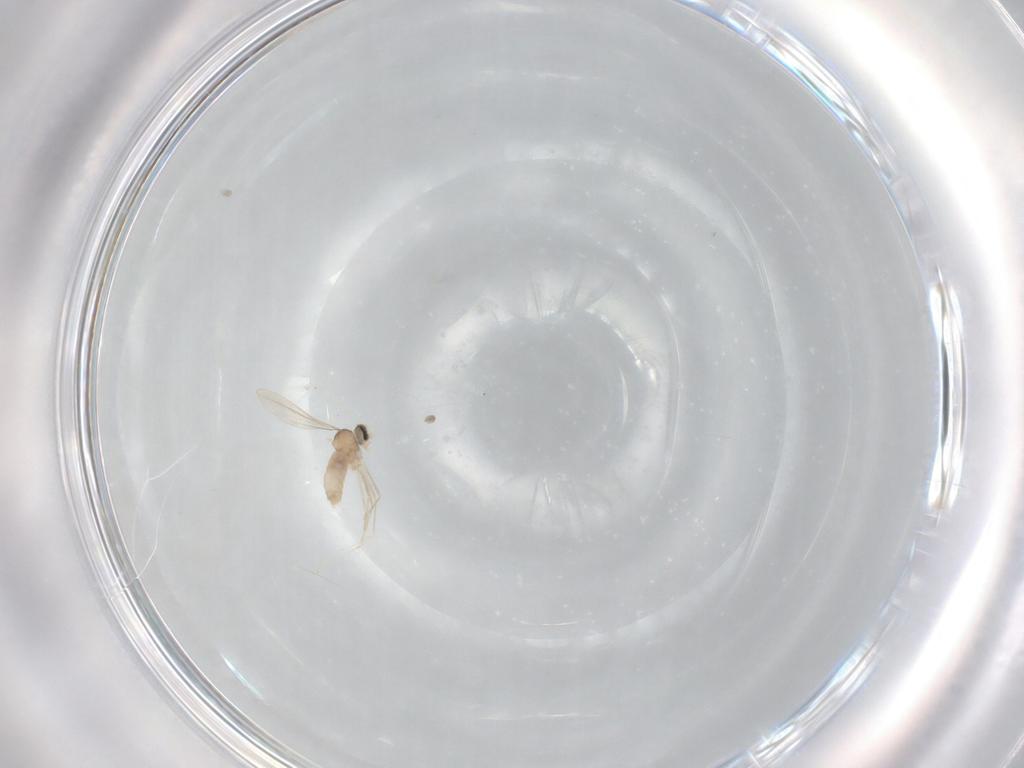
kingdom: Animalia
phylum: Arthropoda
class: Insecta
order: Diptera
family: Cecidomyiidae
